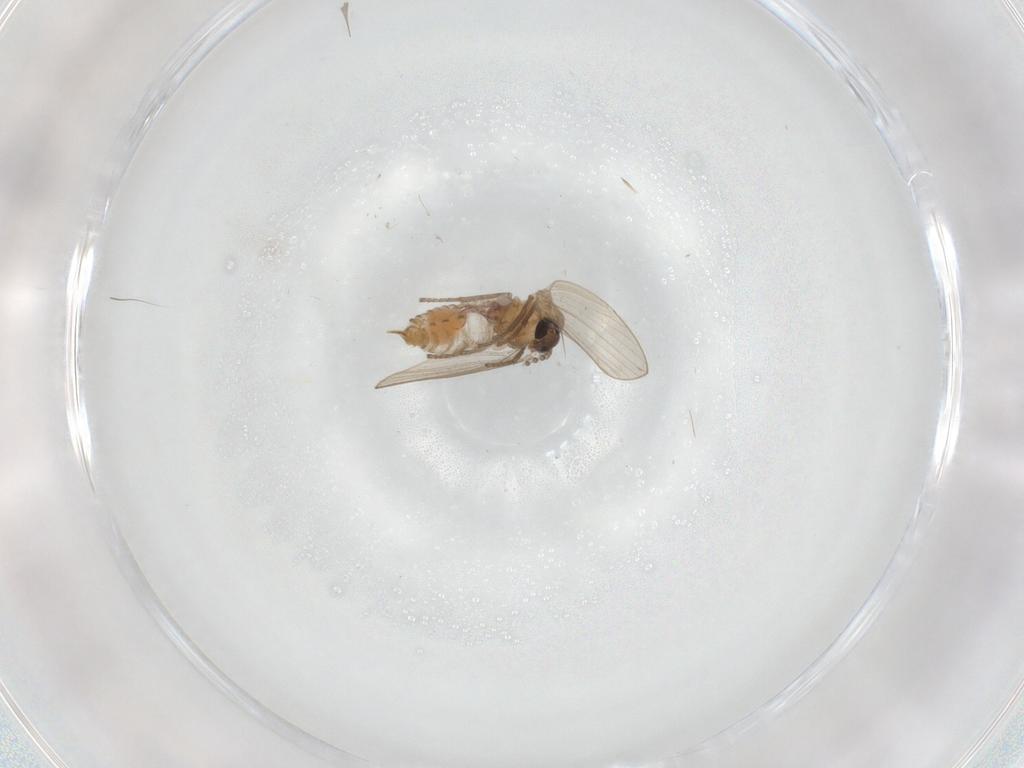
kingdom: Animalia
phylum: Arthropoda
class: Insecta
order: Diptera
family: Psychodidae
